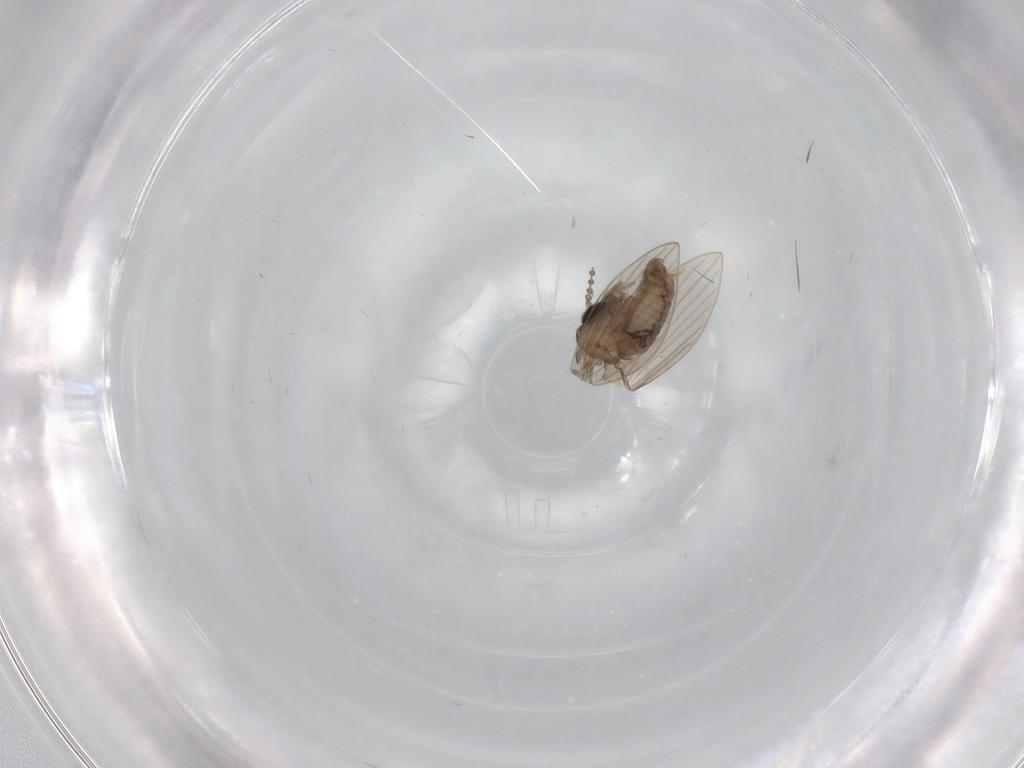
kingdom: Animalia
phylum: Arthropoda
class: Insecta
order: Diptera
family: Psychodidae
